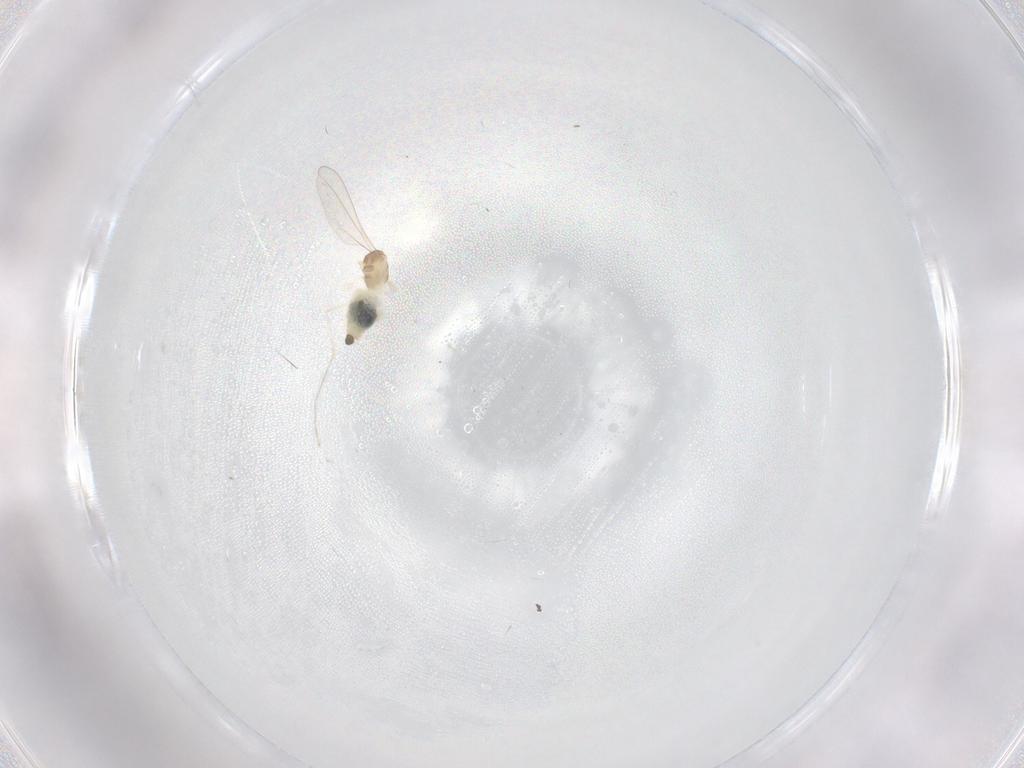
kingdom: Animalia
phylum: Arthropoda
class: Insecta
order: Diptera
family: Cecidomyiidae
